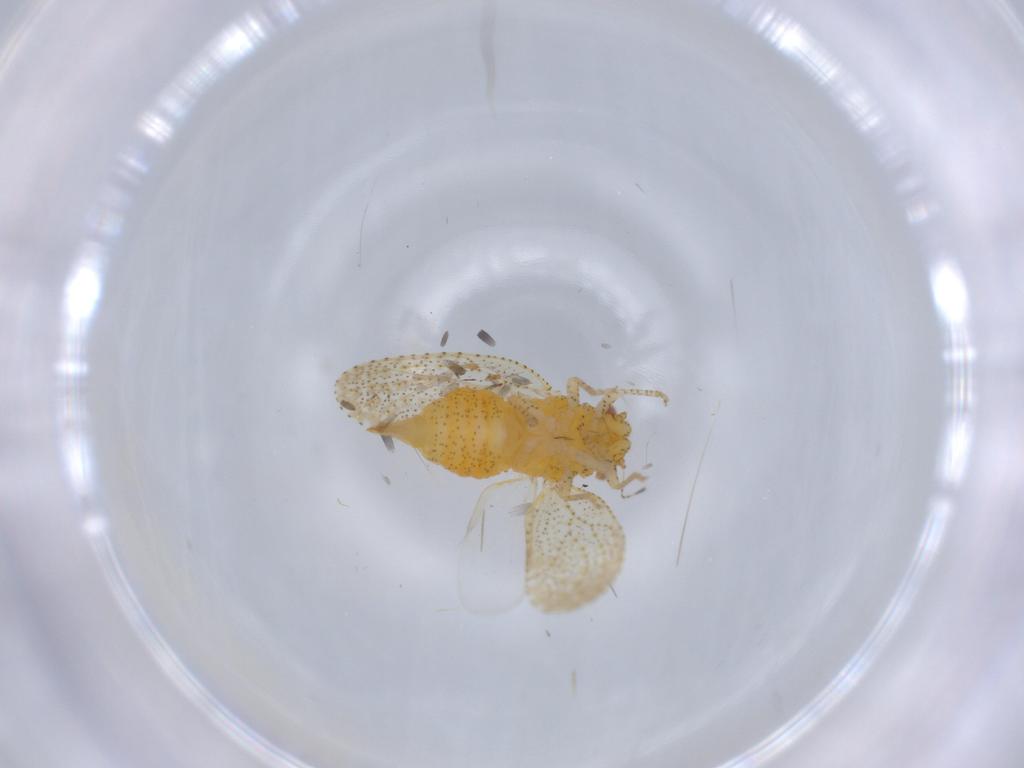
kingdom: Animalia
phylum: Arthropoda
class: Insecta
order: Hemiptera
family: Psyllidae
